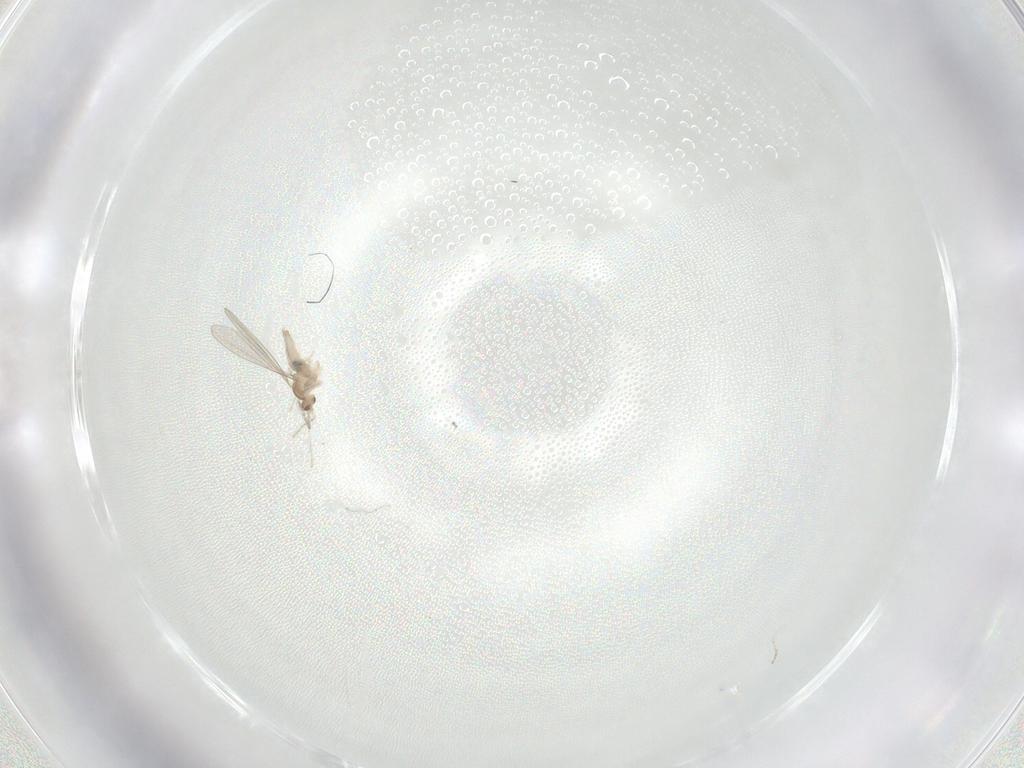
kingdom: Animalia
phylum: Arthropoda
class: Insecta
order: Diptera
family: Cecidomyiidae
